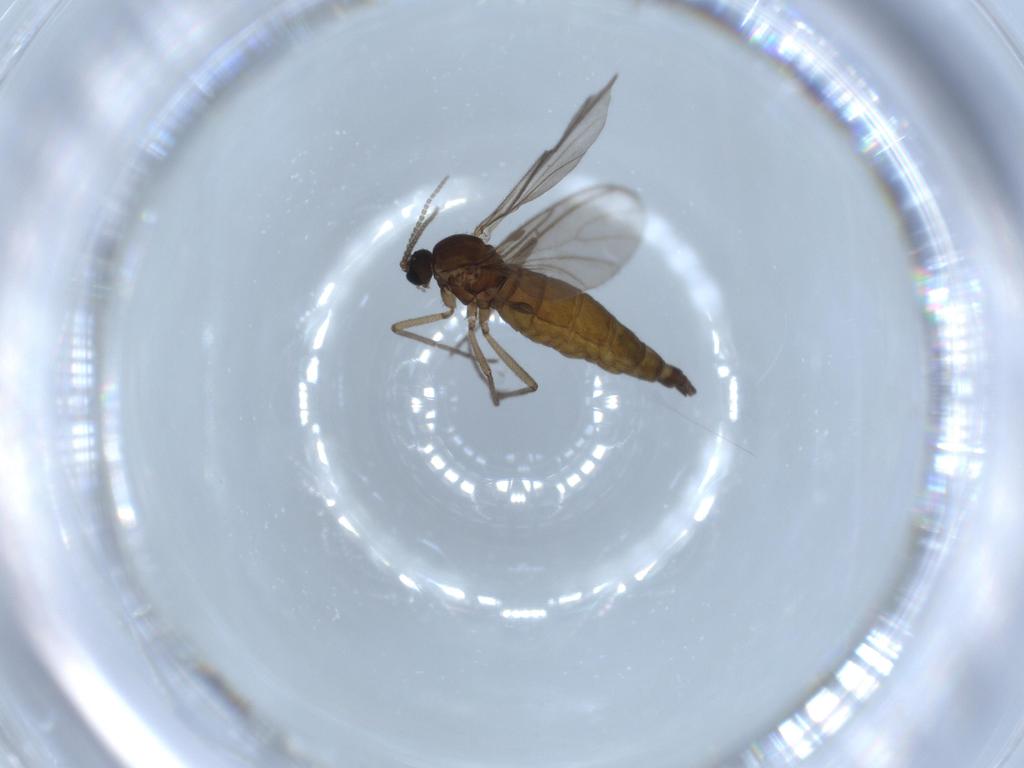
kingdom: Animalia
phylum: Arthropoda
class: Insecta
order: Diptera
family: Sciaridae
